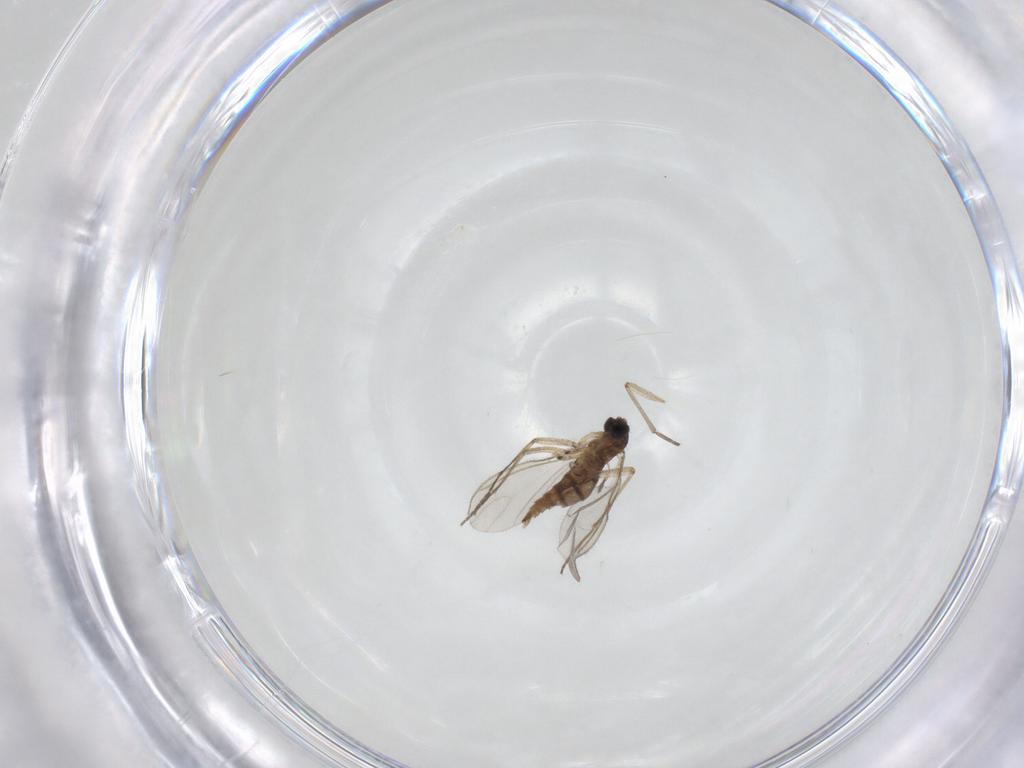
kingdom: Animalia
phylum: Arthropoda
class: Insecta
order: Diptera
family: Sciaridae
